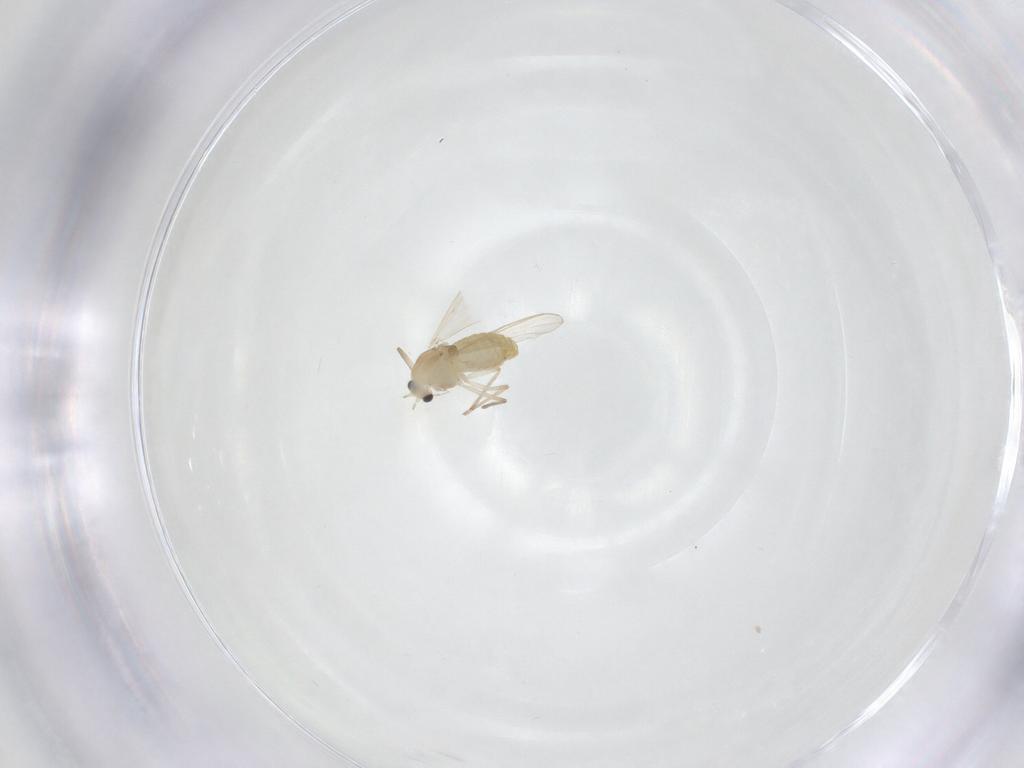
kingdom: Animalia
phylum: Arthropoda
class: Insecta
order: Diptera
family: Chironomidae
